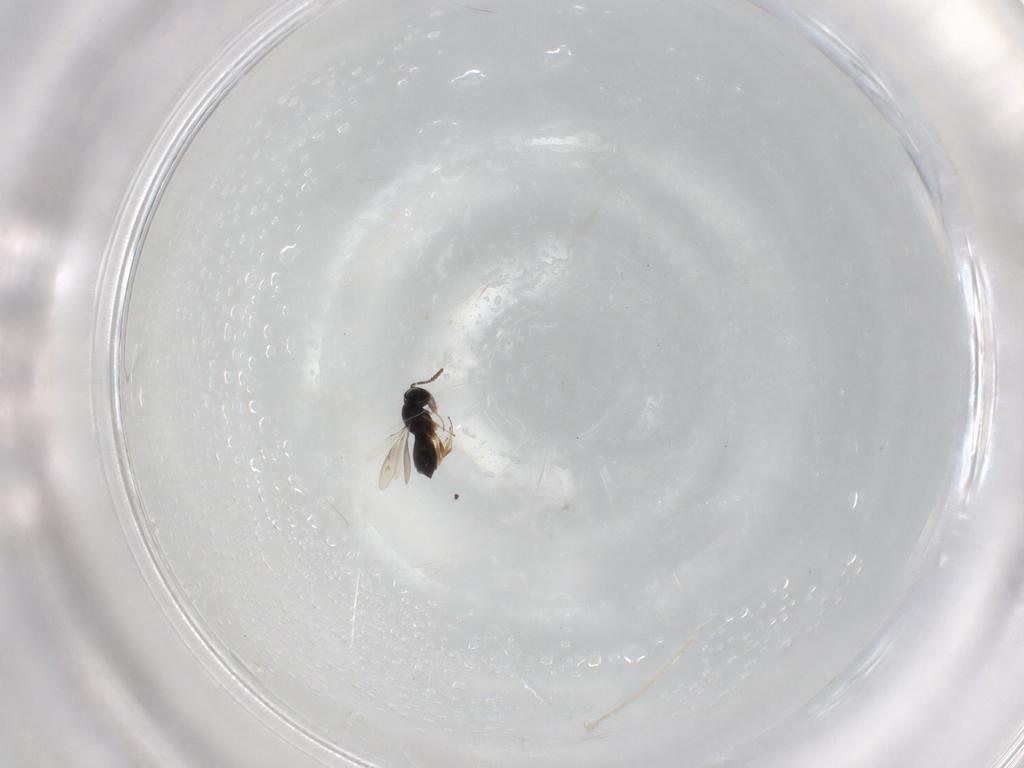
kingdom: Animalia
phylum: Arthropoda
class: Insecta
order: Hymenoptera
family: Scelionidae
